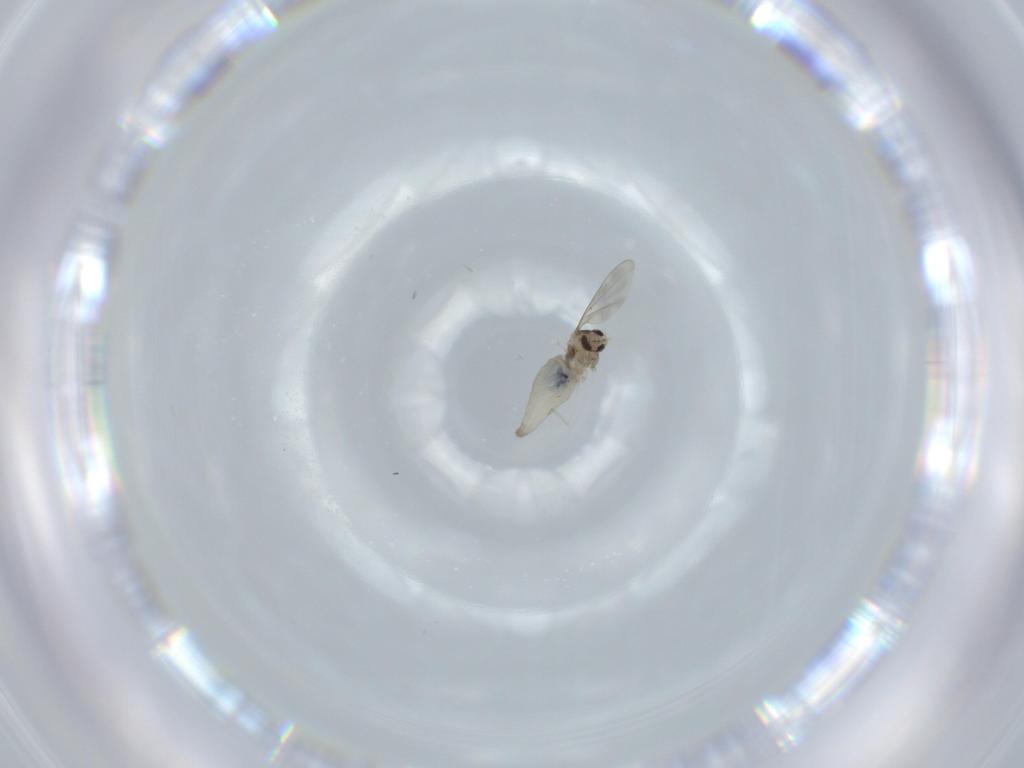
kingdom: Animalia
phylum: Arthropoda
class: Insecta
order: Diptera
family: Cecidomyiidae
